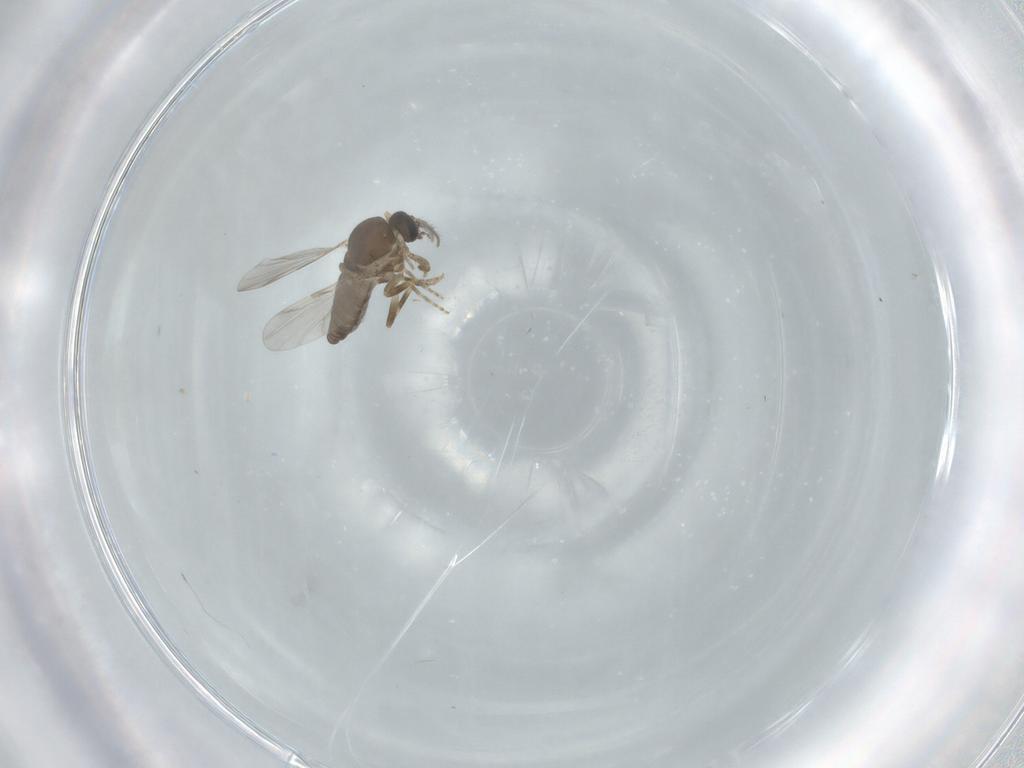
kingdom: Animalia
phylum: Arthropoda
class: Insecta
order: Diptera
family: Ceratopogonidae
